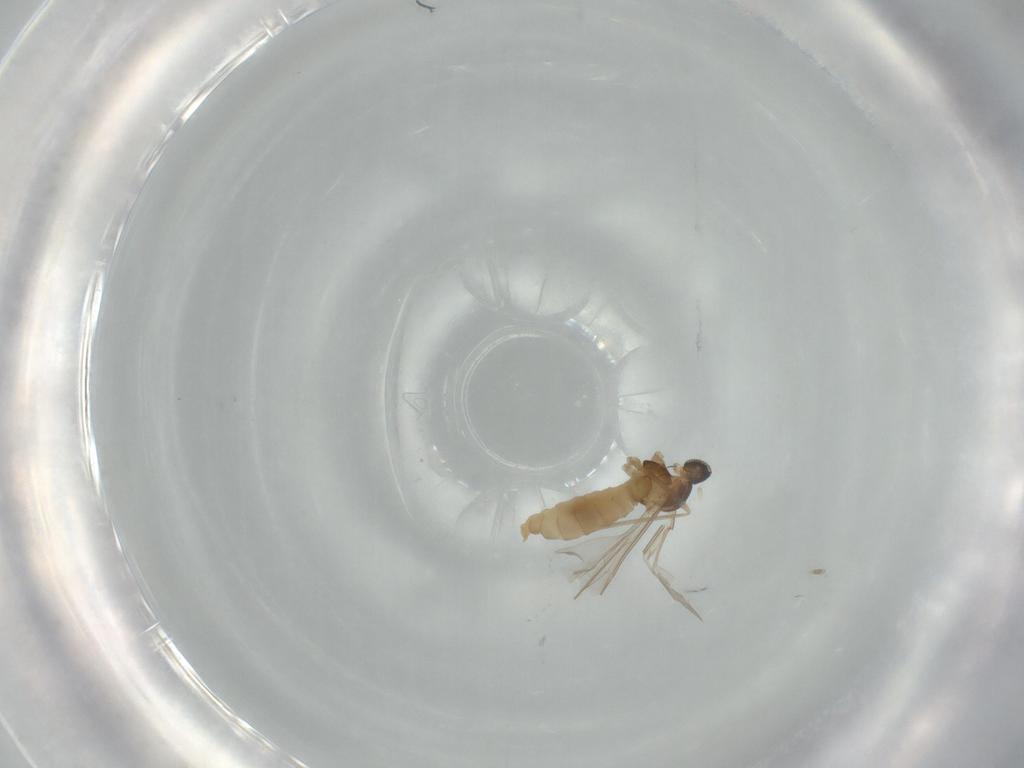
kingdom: Animalia
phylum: Arthropoda
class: Insecta
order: Diptera
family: Cecidomyiidae
